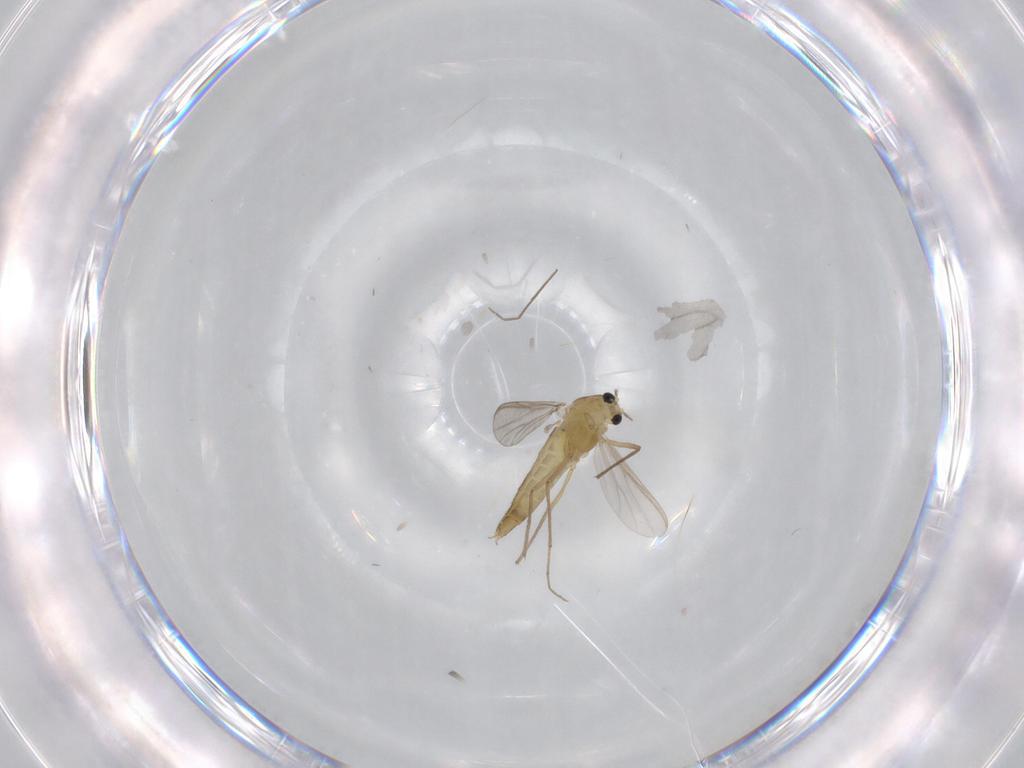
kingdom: Animalia
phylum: Arthropoda
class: Insecta
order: Diptera
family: Chironomidae
